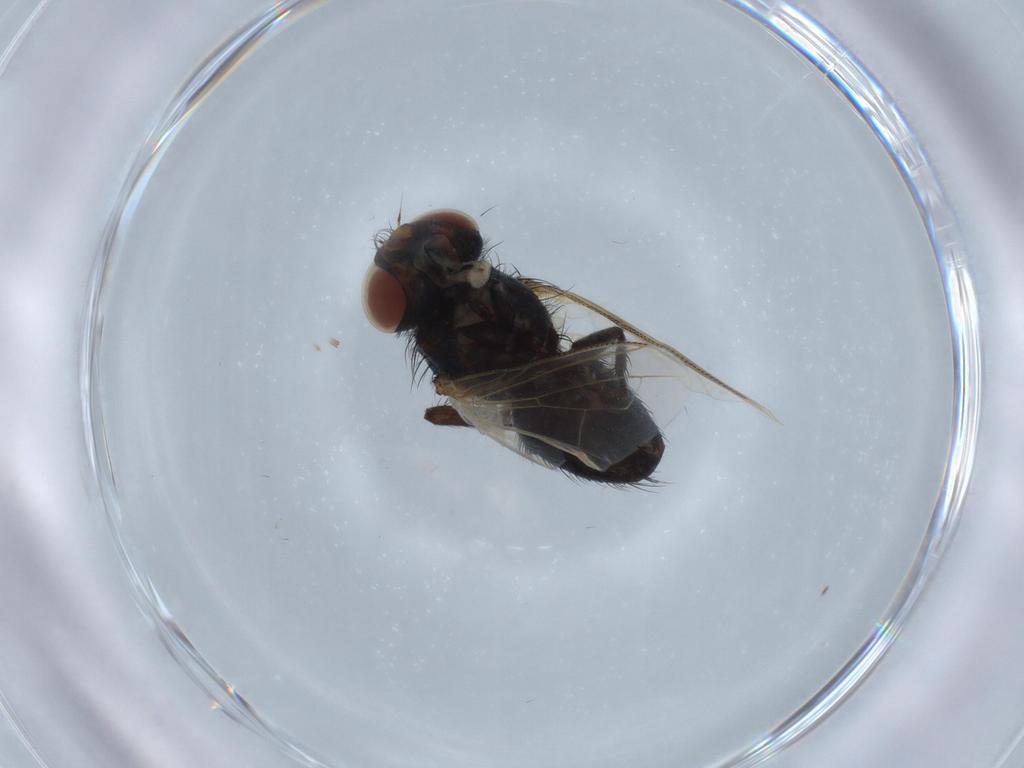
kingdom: Animalia
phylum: Arthropoda
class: Insecta
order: Diptera
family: Tachinidae
